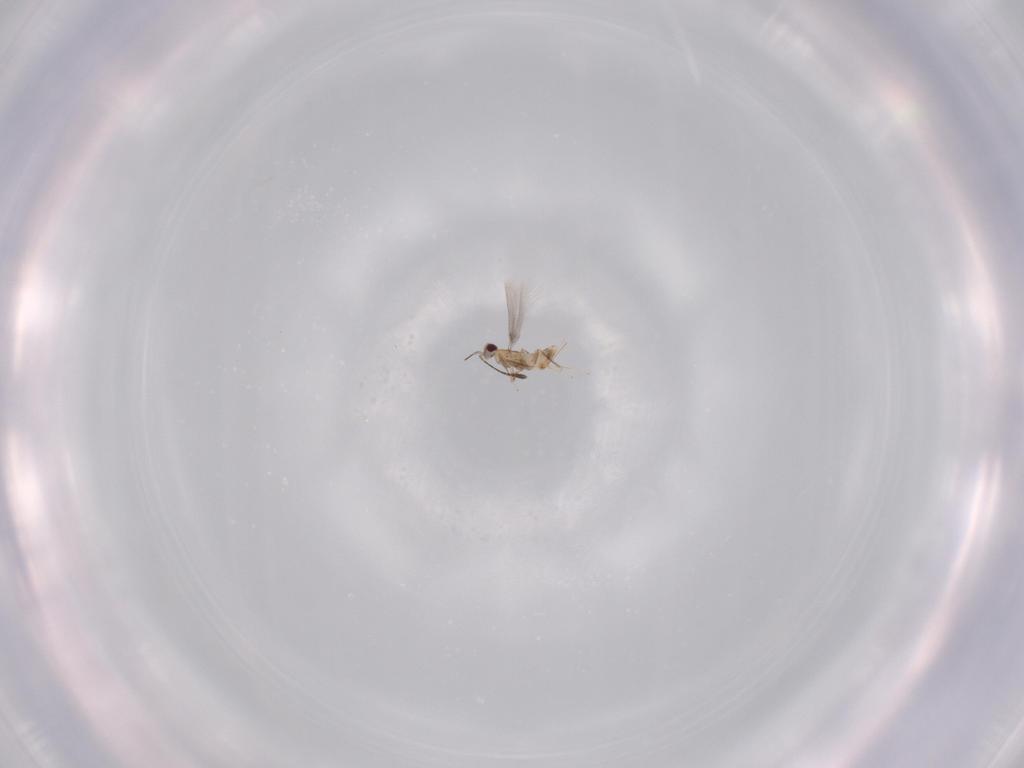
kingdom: Animalia
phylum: Arthropoda
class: Insecta
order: Hymenoptera
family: Mymaridae
